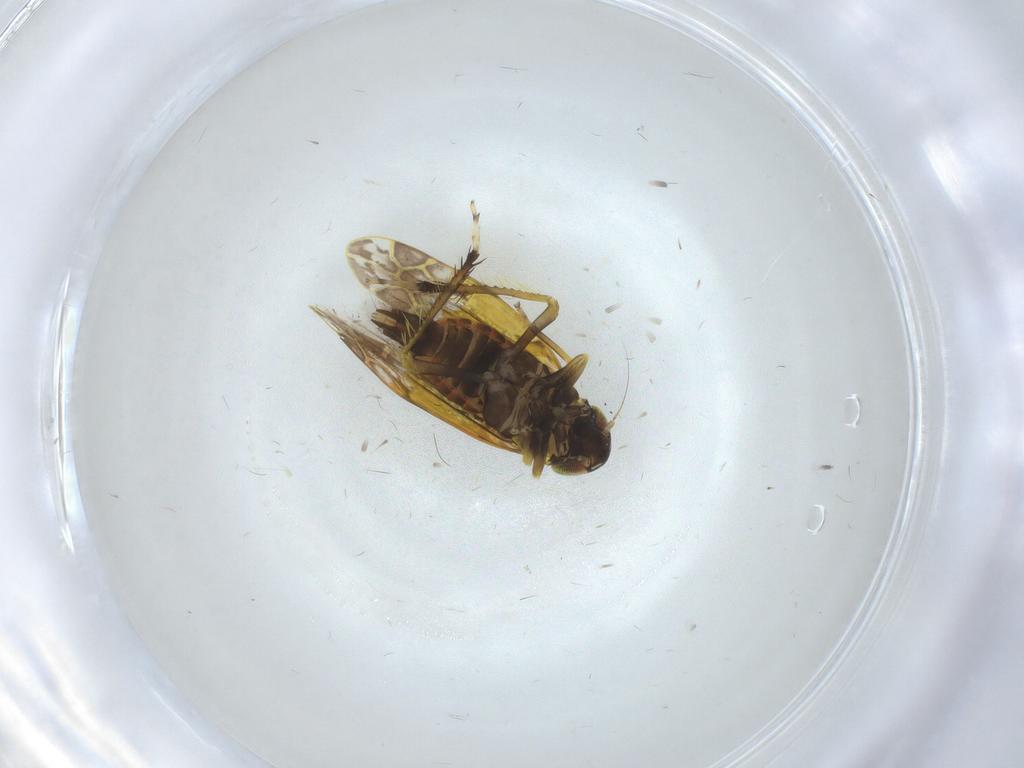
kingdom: Animalia
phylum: Arthropoda
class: Insecta
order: Hemiptera
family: Cicadellidae
